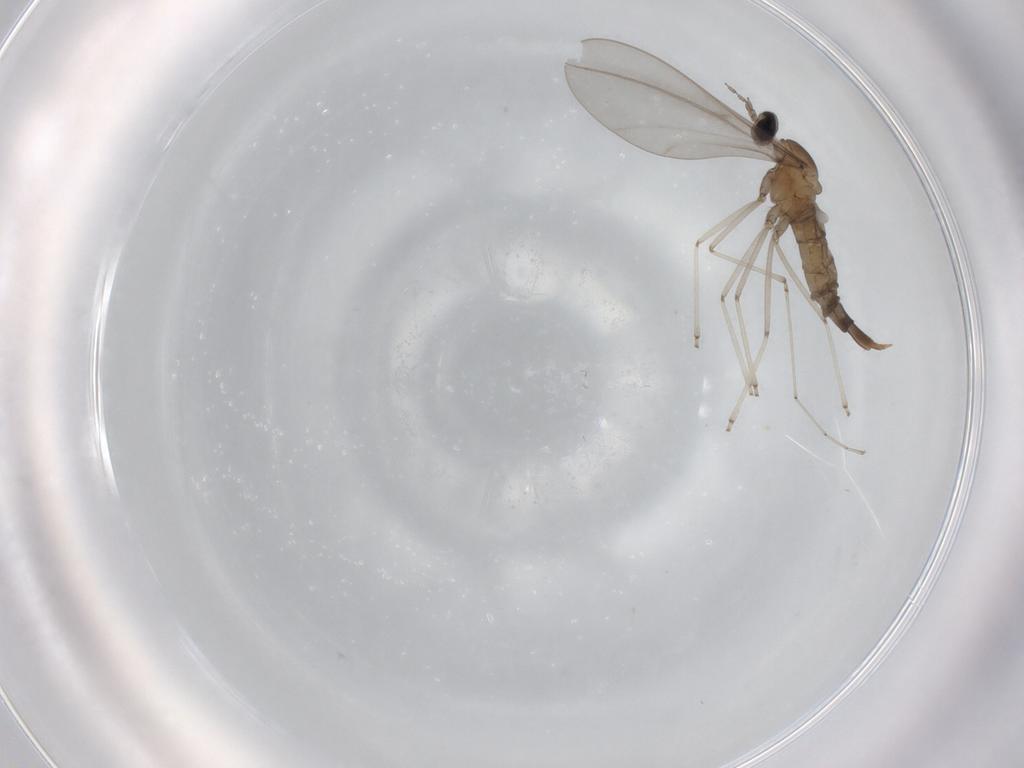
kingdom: Animalia
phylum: Arthropoda
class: Insecta
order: Diptera
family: Cecidomyiidae
